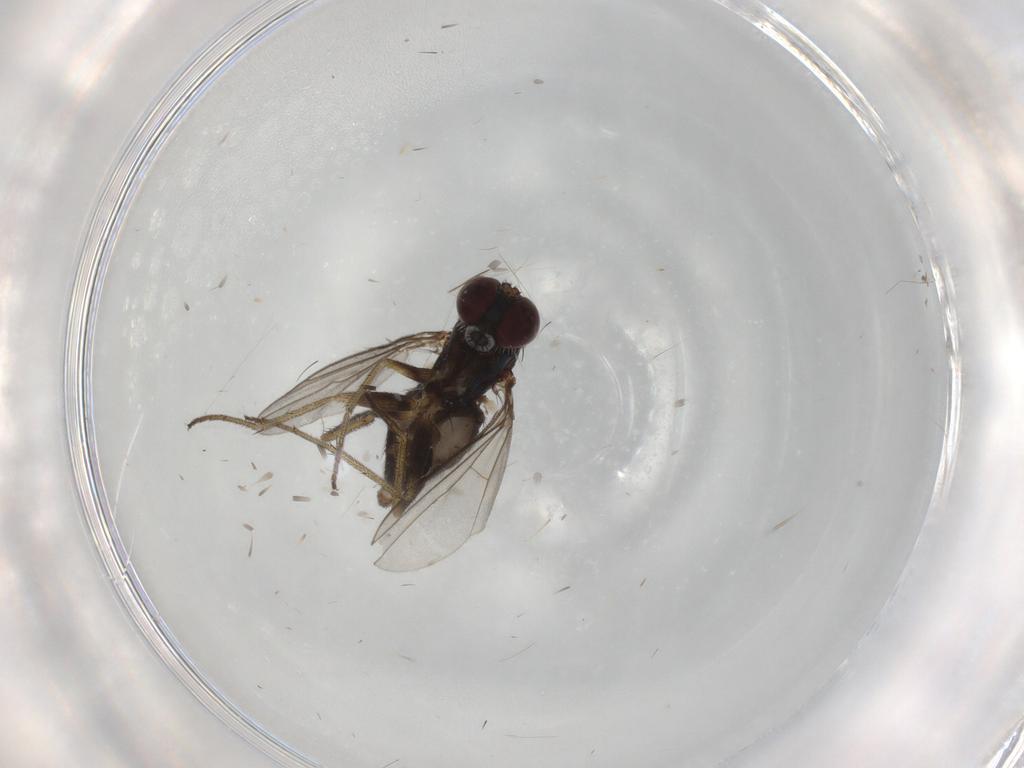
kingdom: Animalia
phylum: Arthropoda
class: Insecta
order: Diptera
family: Dolichopodidae
